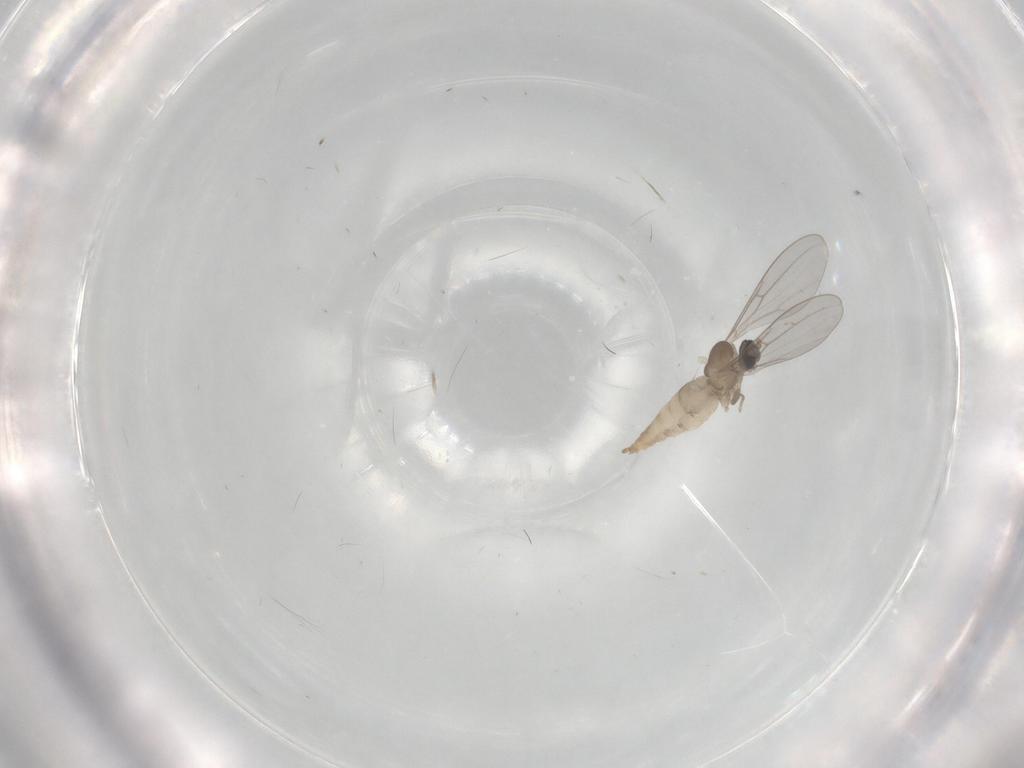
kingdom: Animalia
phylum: Arthropoda
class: Insecta
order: Diptera
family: Cecidomyiidae
